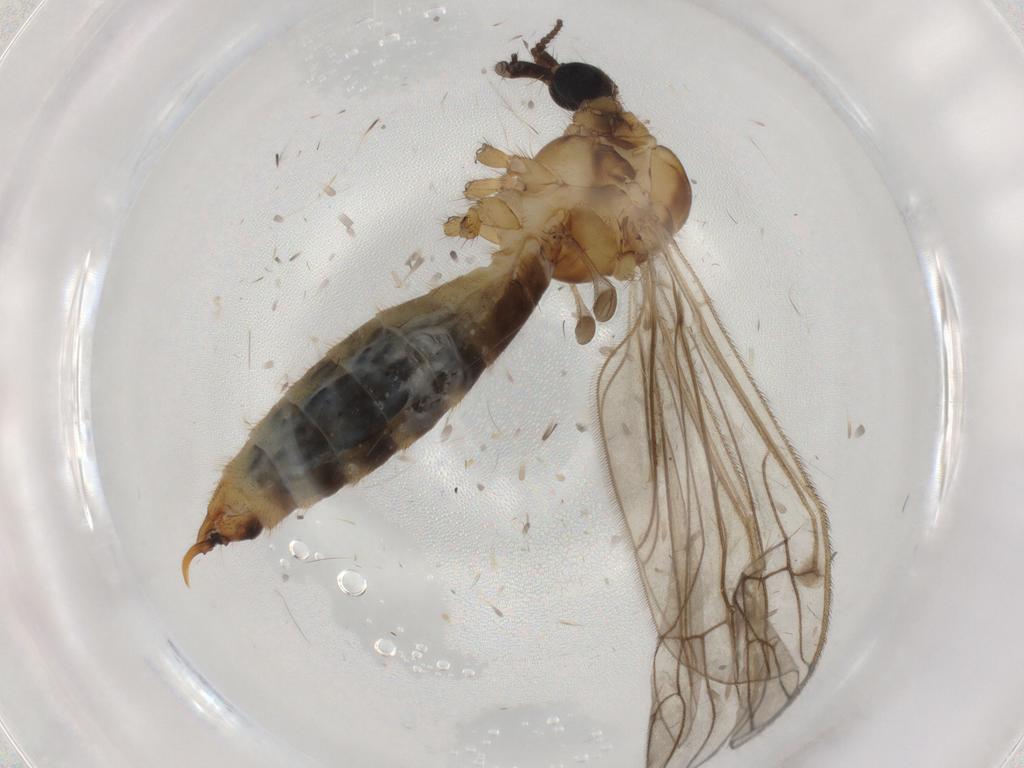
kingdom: Animalia
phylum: Arthropoda
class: Insecta
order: Diptera
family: Limoniidae
